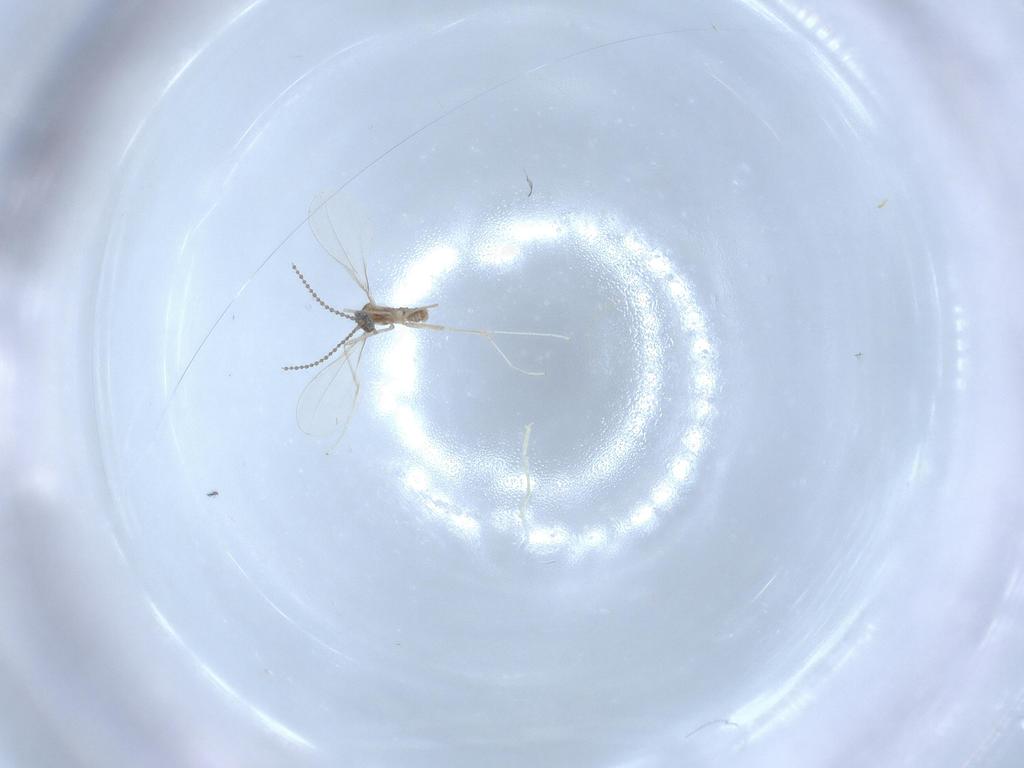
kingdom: Animalia
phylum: Arthropoda
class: Insecta
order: Diptera
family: Cecidomyiidae
